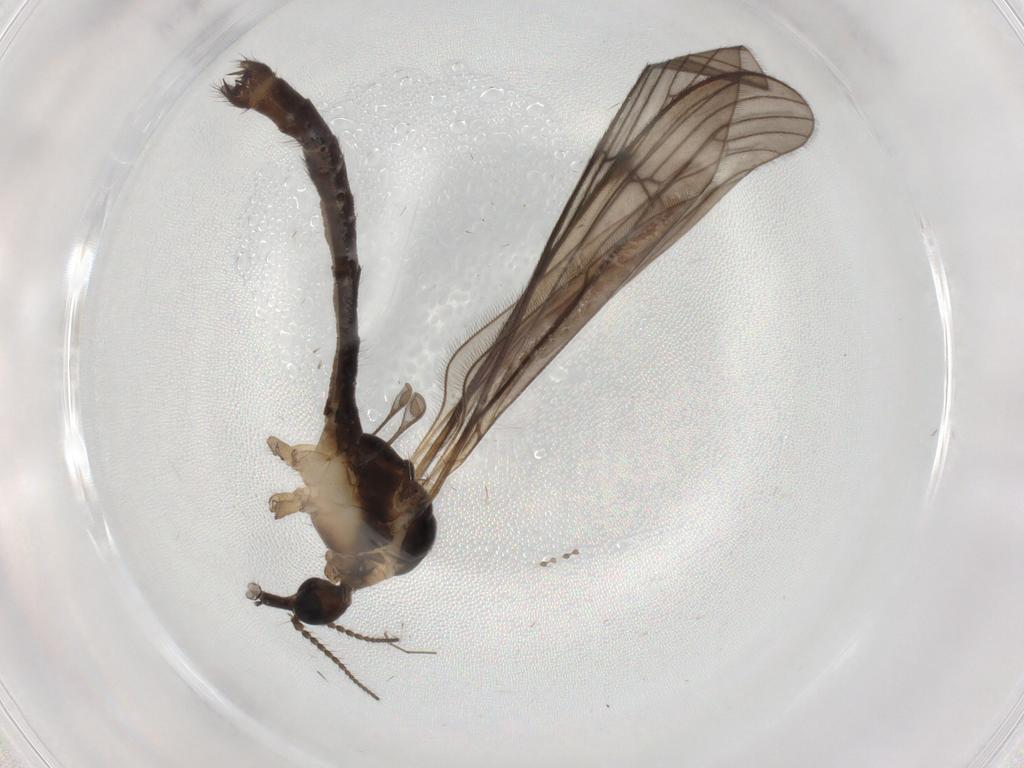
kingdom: Animalia
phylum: Arthropoda
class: Insecta
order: Diptera
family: Limoniidae
